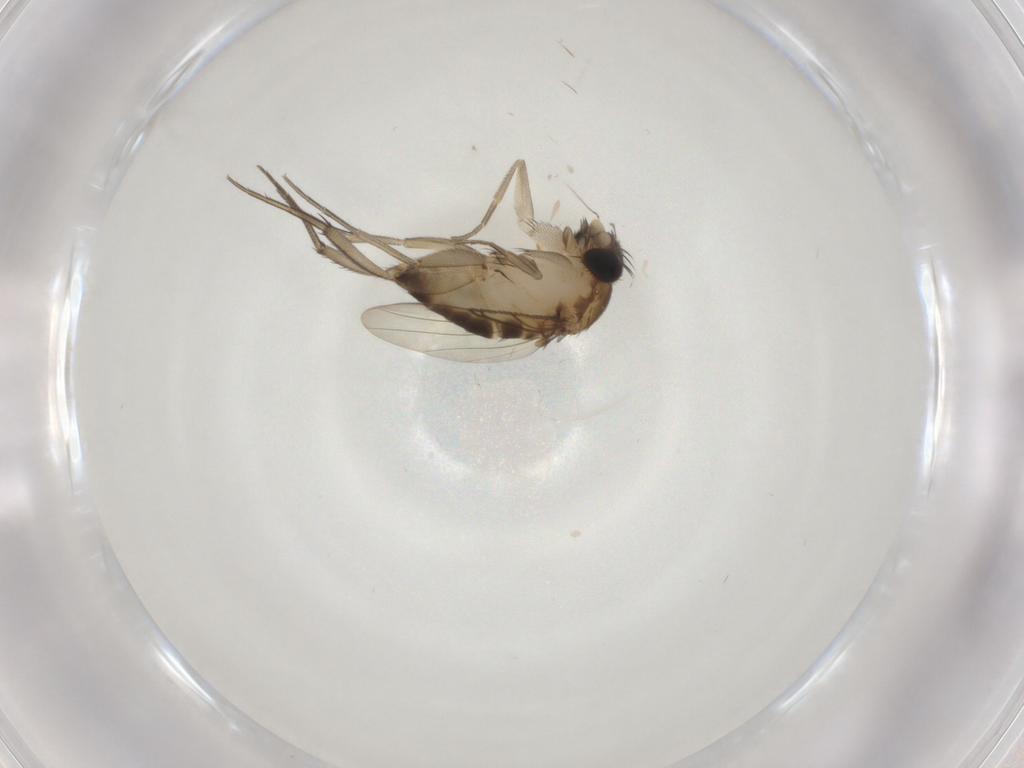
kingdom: Animalia
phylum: Arthropoda
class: Insecta
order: Diptera
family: Phoridae
